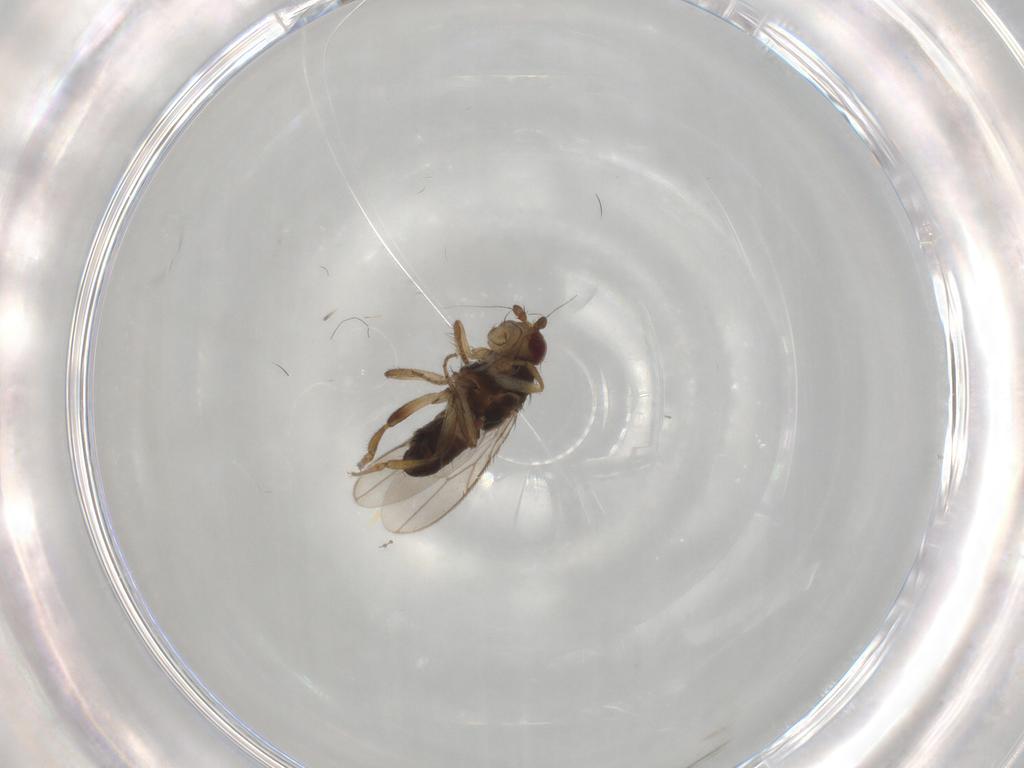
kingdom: Animalia
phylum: Arthropoda
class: Insecta
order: Diptera
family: Sphaeroceridae
